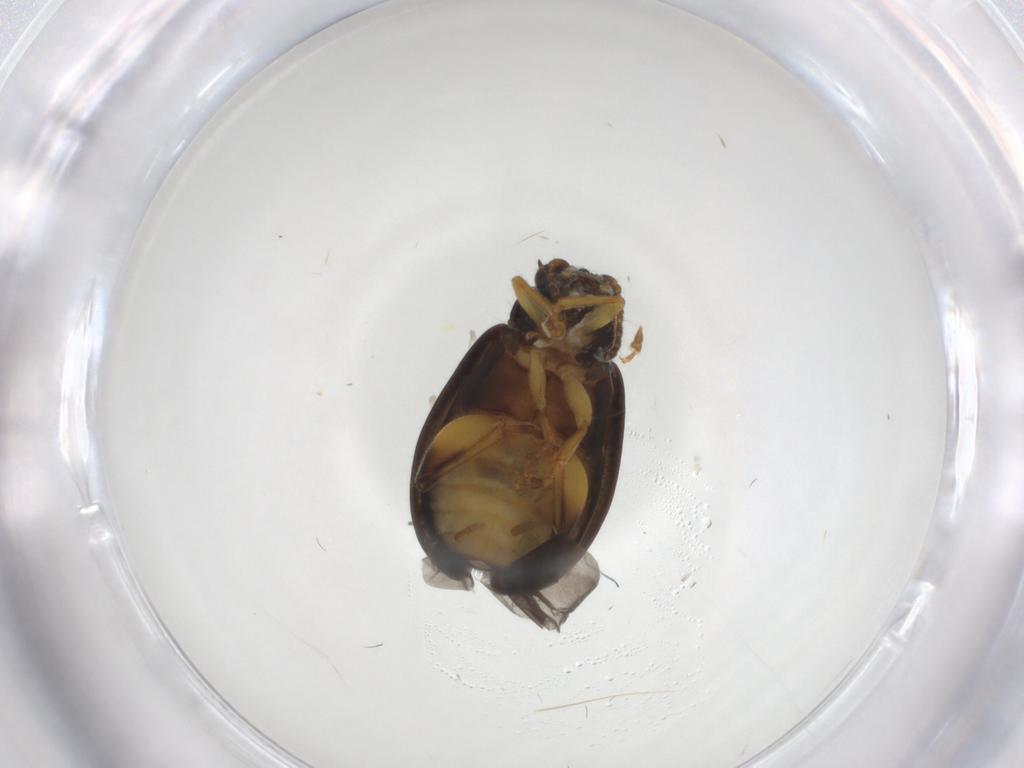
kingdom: Animalia
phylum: Arthropoda
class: Insecta
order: Coleoptera
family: Chrysomelidae
